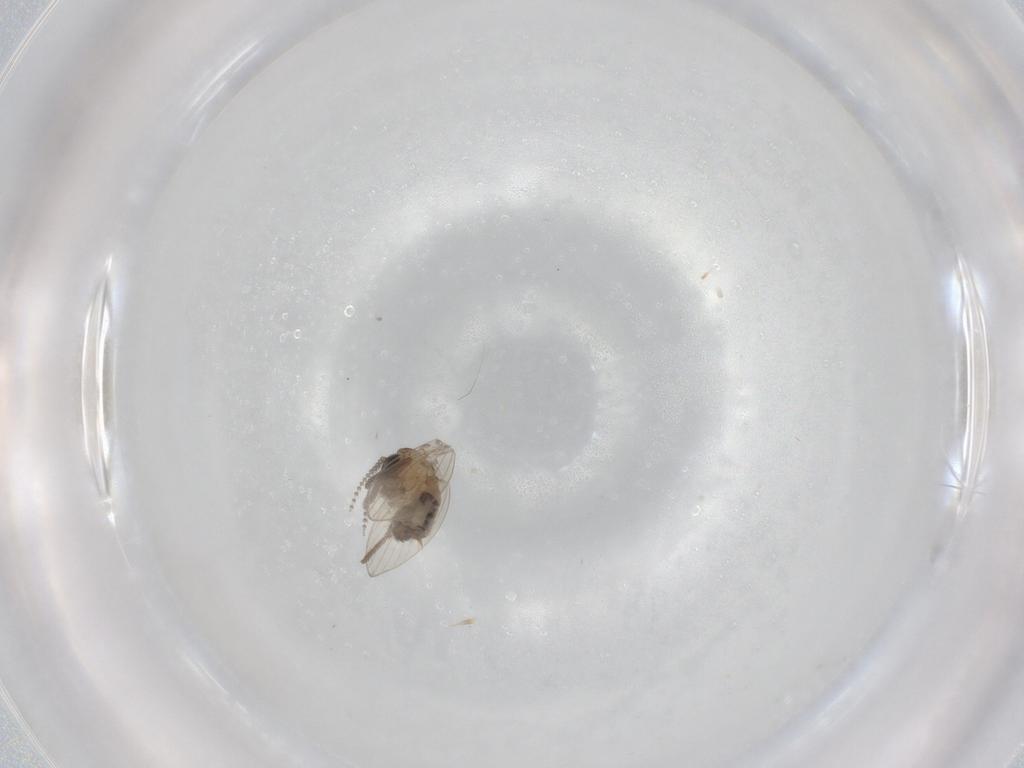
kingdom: Animalia
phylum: Arthropoda
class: Insecta
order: Diptera
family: Psychodidae
